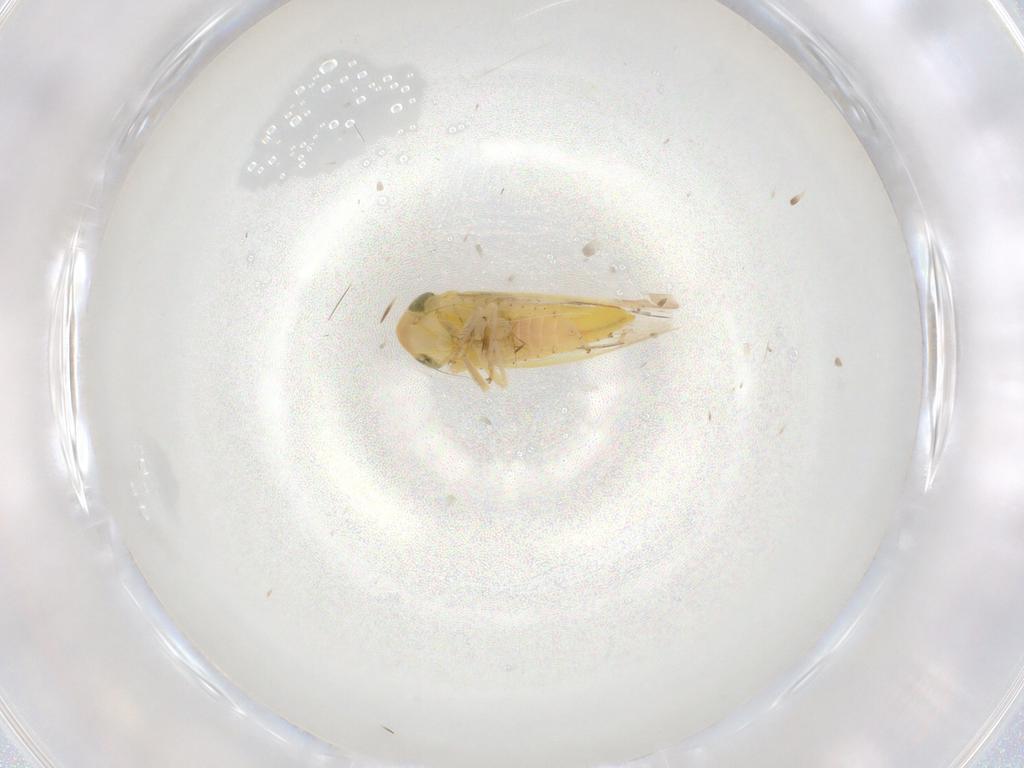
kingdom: Animalia
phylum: Arthropoda
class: Insecta
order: Hemiptera
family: Cicadellidae
